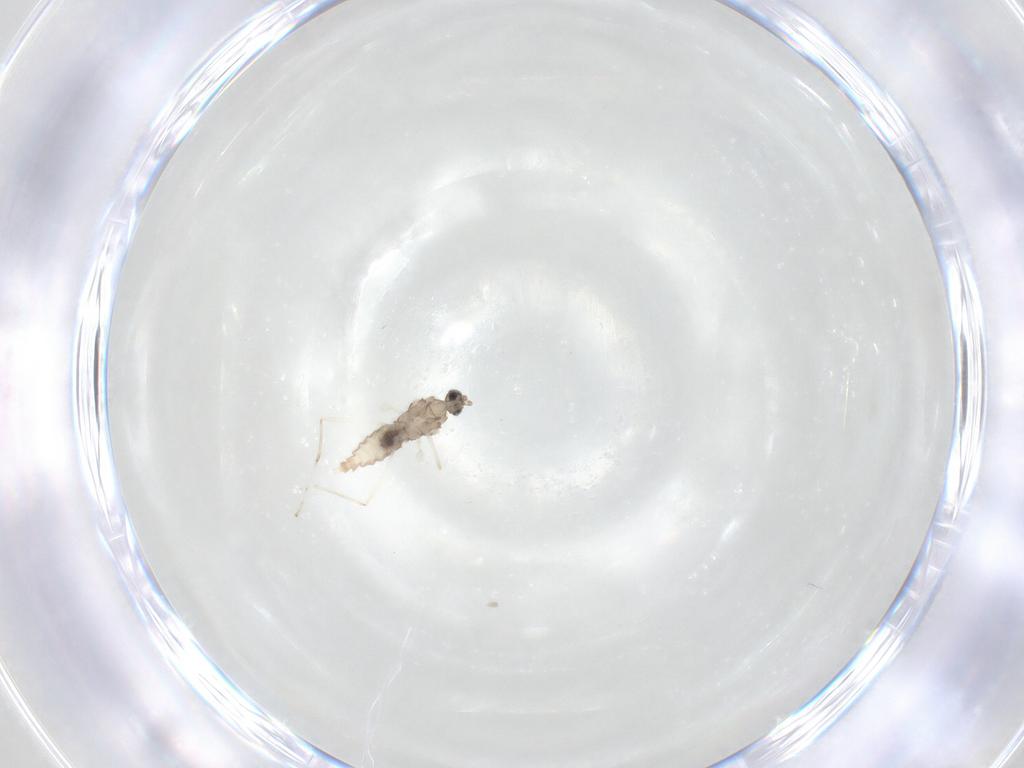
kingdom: Animalia
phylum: Arthropoda
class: Insecta
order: Diptera
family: Cecidomyiidae
